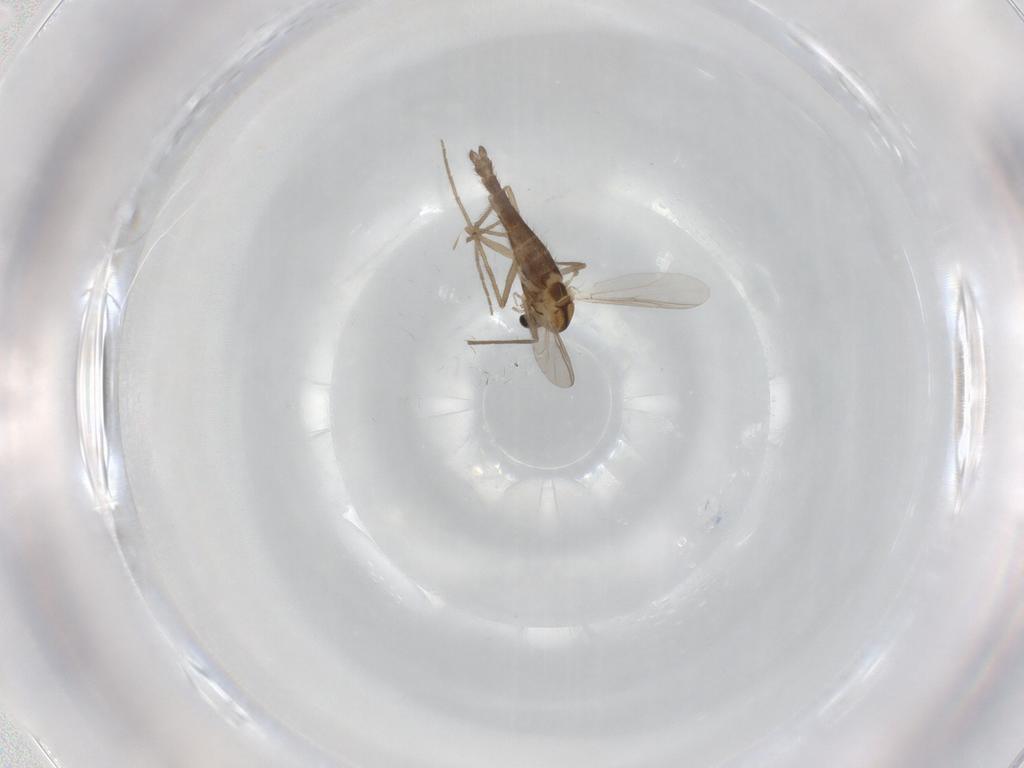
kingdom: Animalia
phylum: Arthropoda
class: Insecta
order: Diptera
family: Chironomidae
